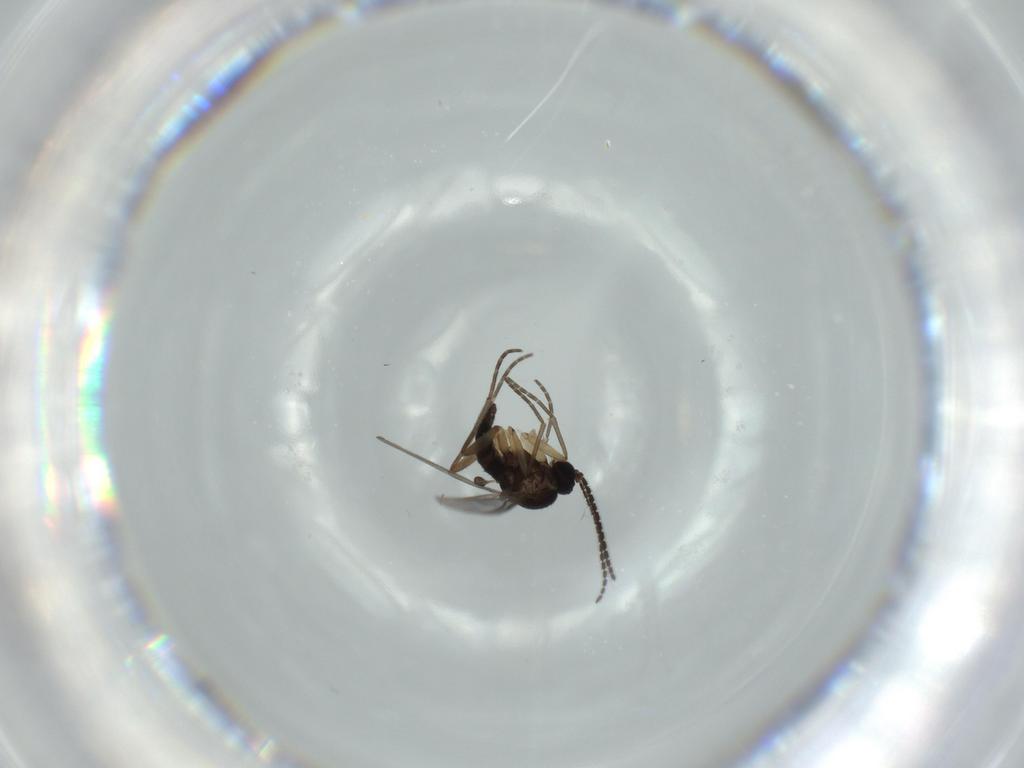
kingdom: Animalia
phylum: Arthropoda
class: Insecta
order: Diptera
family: Sciaridae
